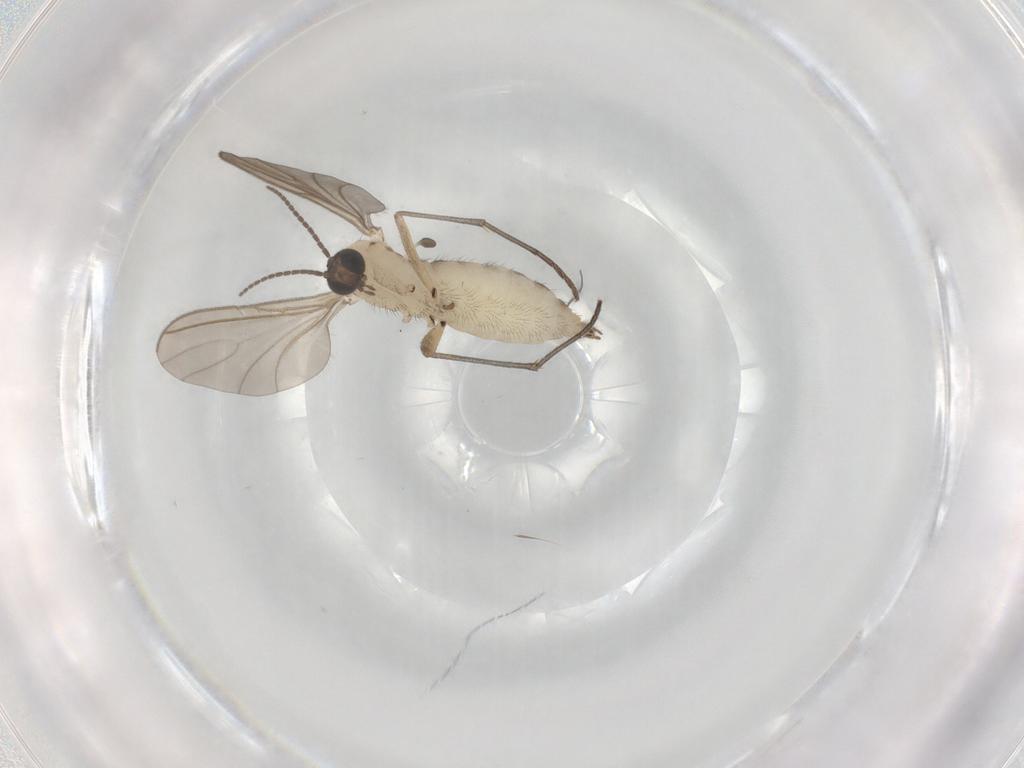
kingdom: Animalia
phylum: Arthropoda
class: Insecta
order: Diptera
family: Sciaridae
